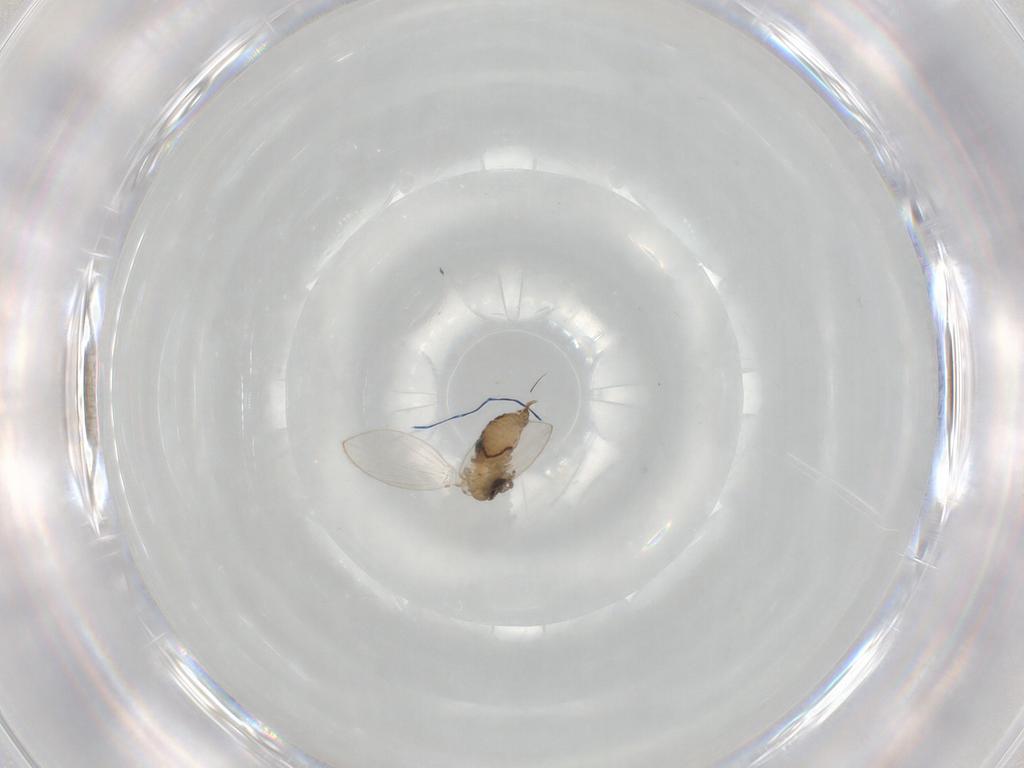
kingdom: Animalia
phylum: Arthropoda
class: Insecta
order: Diptera
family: Psychodidae
